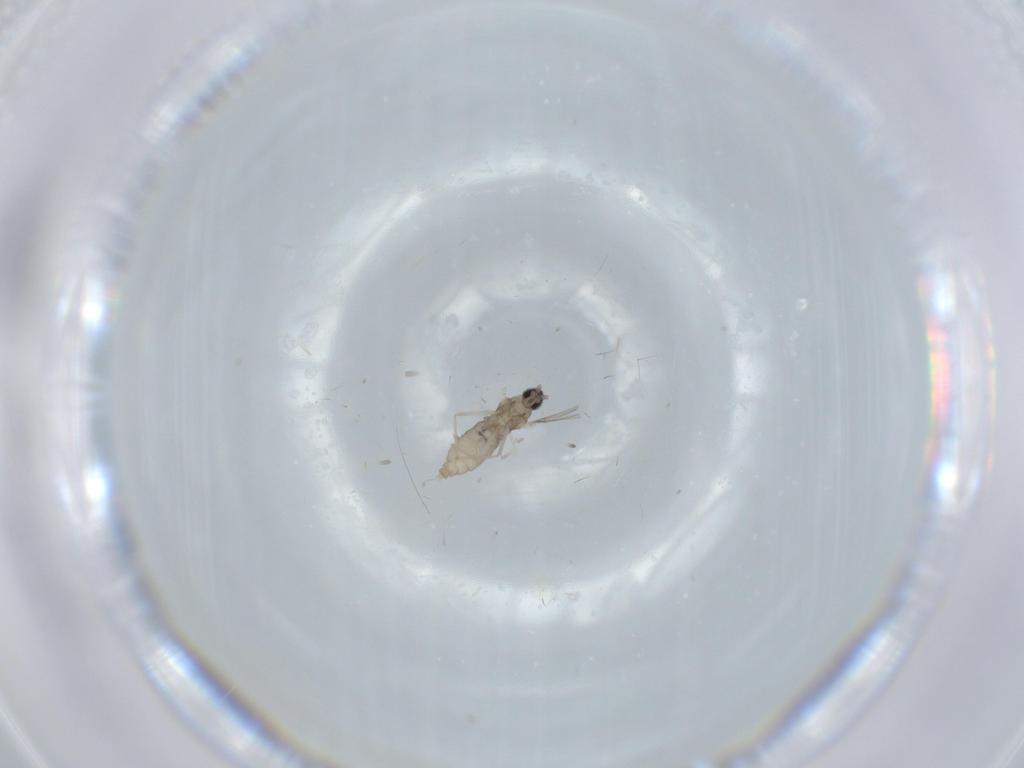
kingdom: Animalia
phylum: Arthropoda
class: Insecta
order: Diptera
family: Cecidomyiidae
